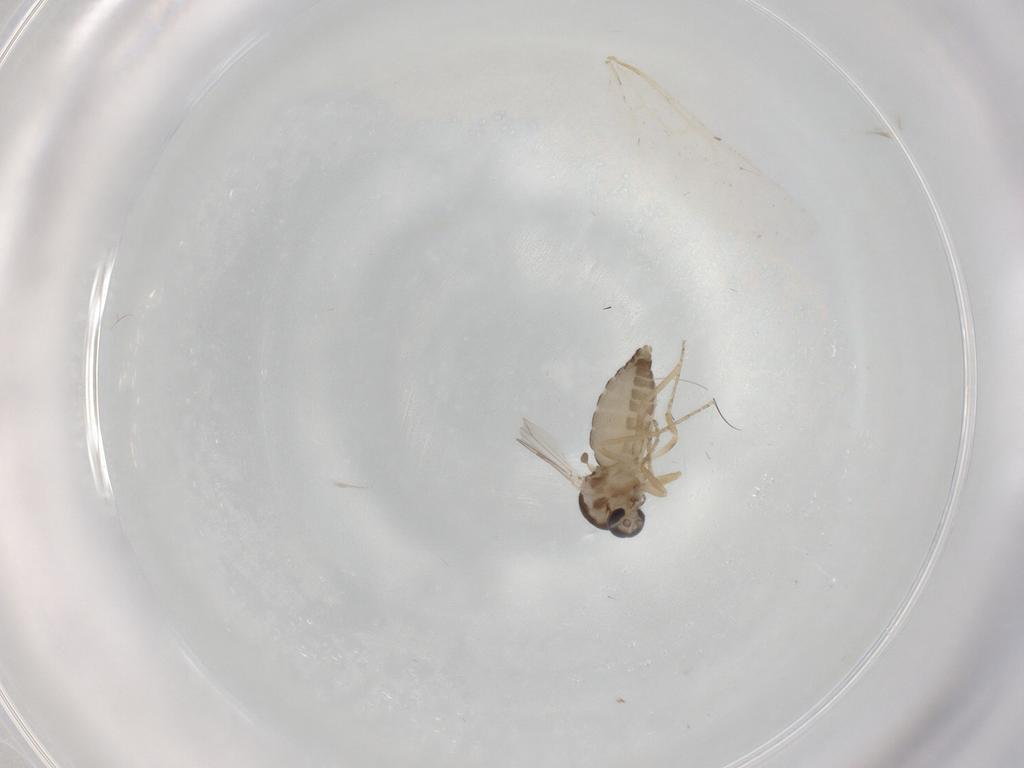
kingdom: Animalia
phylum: Arthropoda
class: Insecta
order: Diptera
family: Ceratopogonidae
